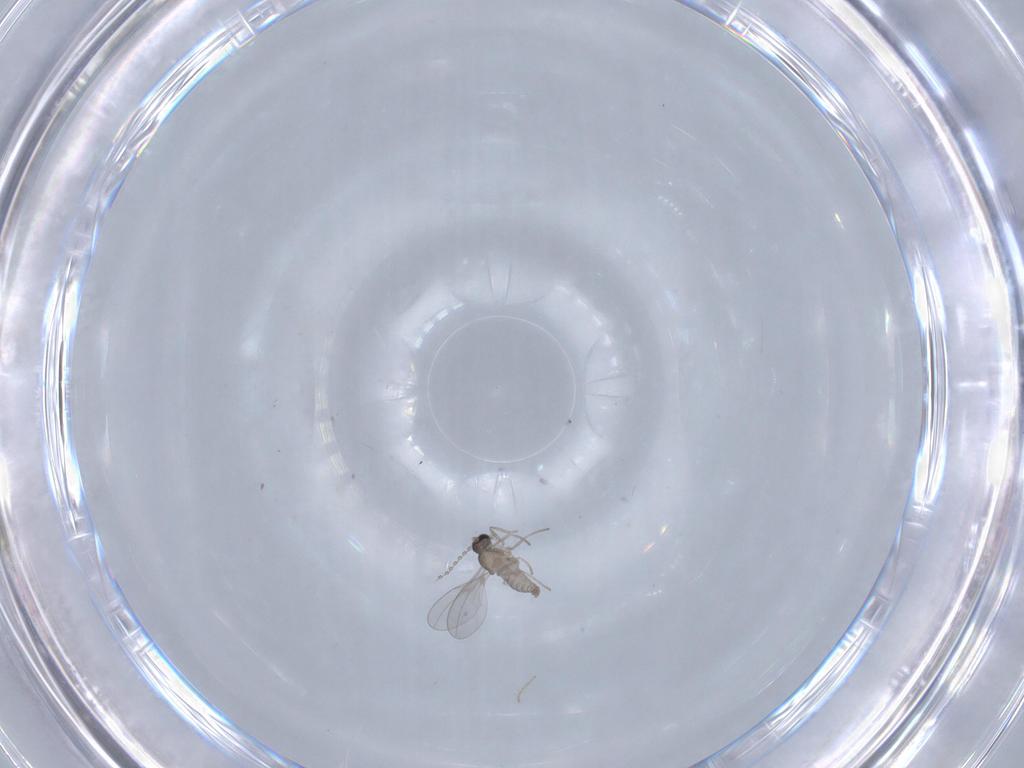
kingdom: Animalia
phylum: Arthropoda
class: Insecta
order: Diptera
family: Cecidomyiidae
